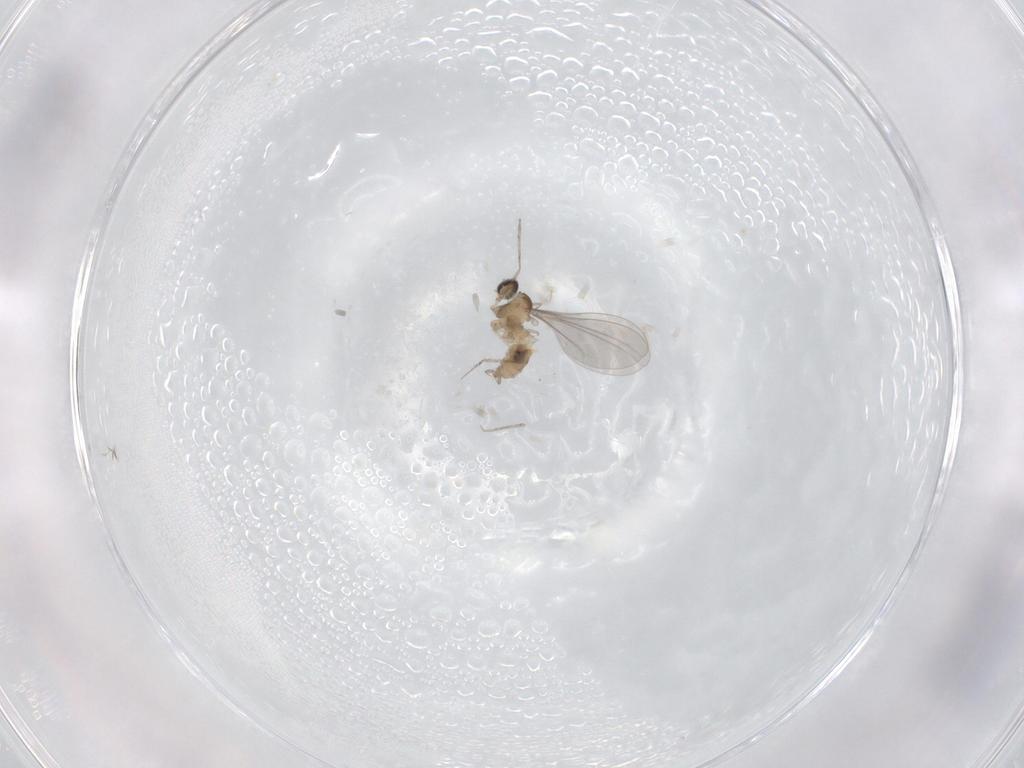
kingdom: Animalia
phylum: Arthropoda
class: Insecta
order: Diptera
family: Cecidomyiidae
